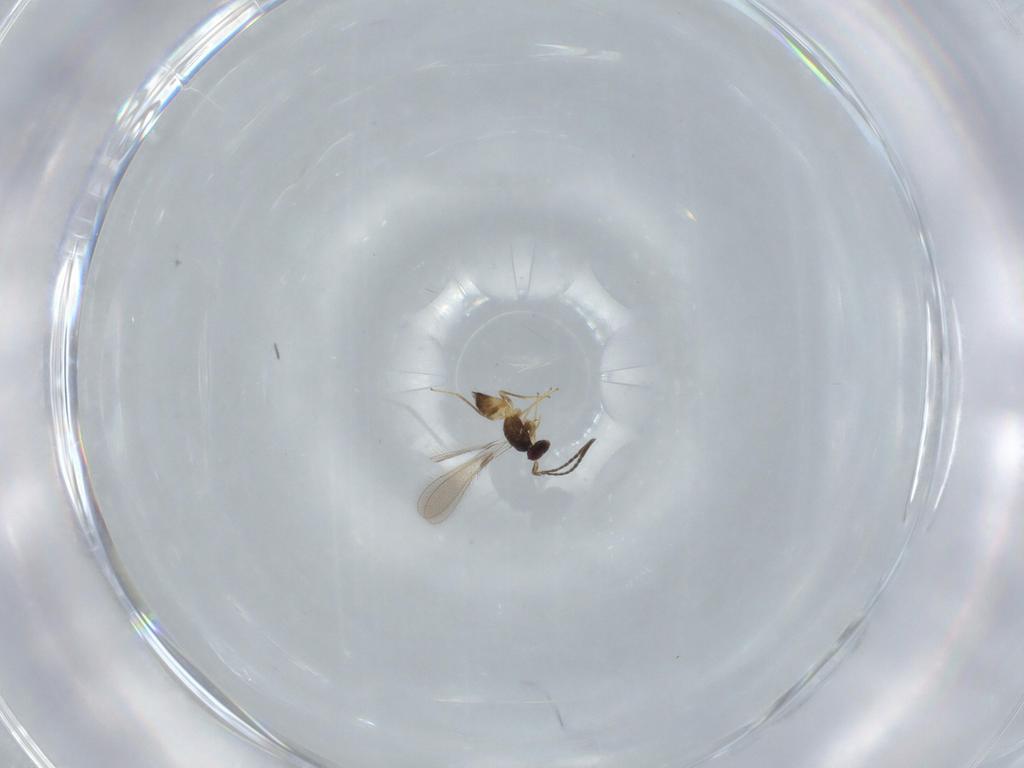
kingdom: Animalia
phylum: Arthropoda
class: Insecta
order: Hymenoptera
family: Mymaridae
